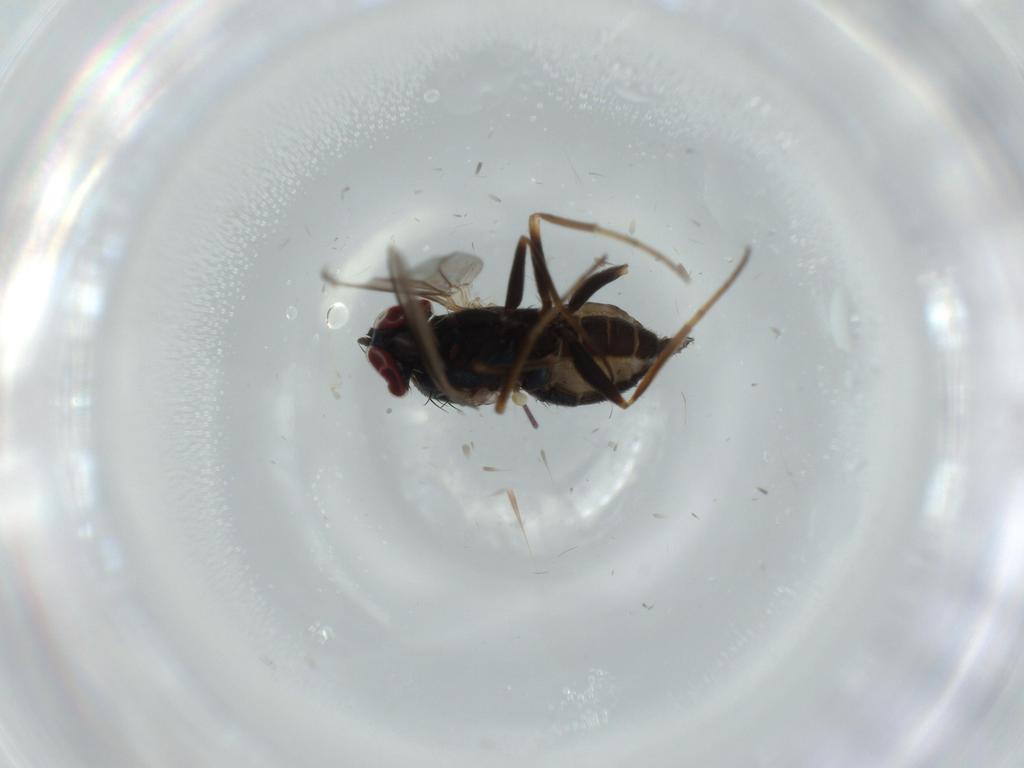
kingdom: Animalia
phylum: Arthropoda
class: Insecta
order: Diptera
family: Dolichopodidae
